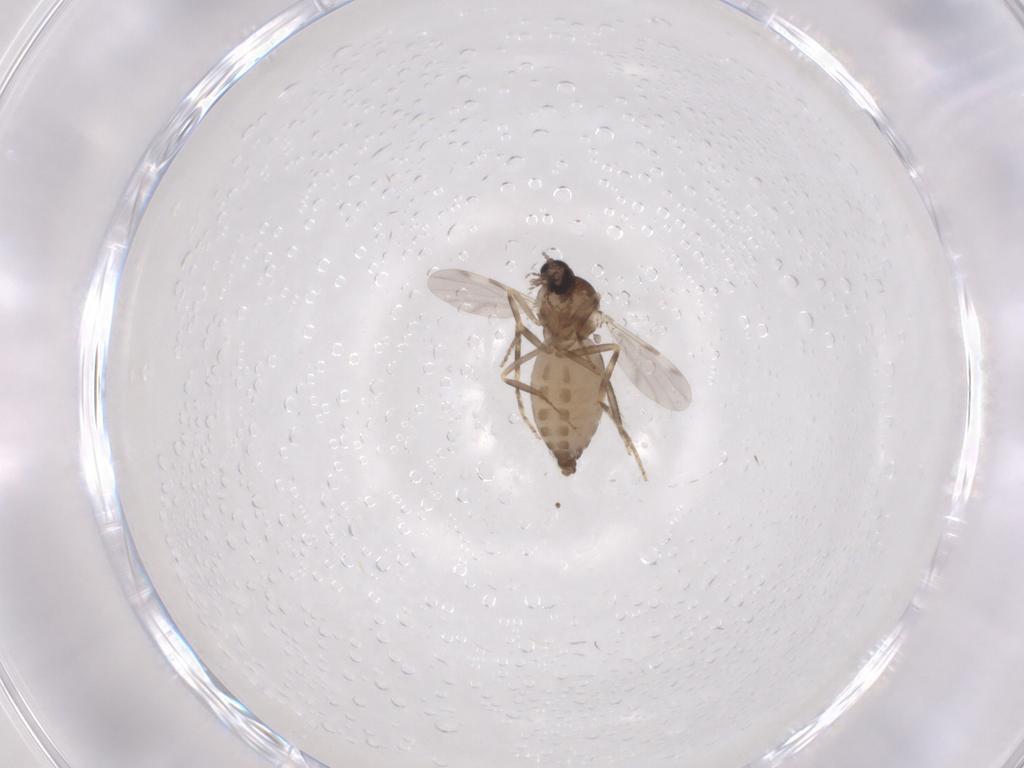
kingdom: Animalia
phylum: Arthropoda
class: Insecta
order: Diptera
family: Ceratopogonidae
